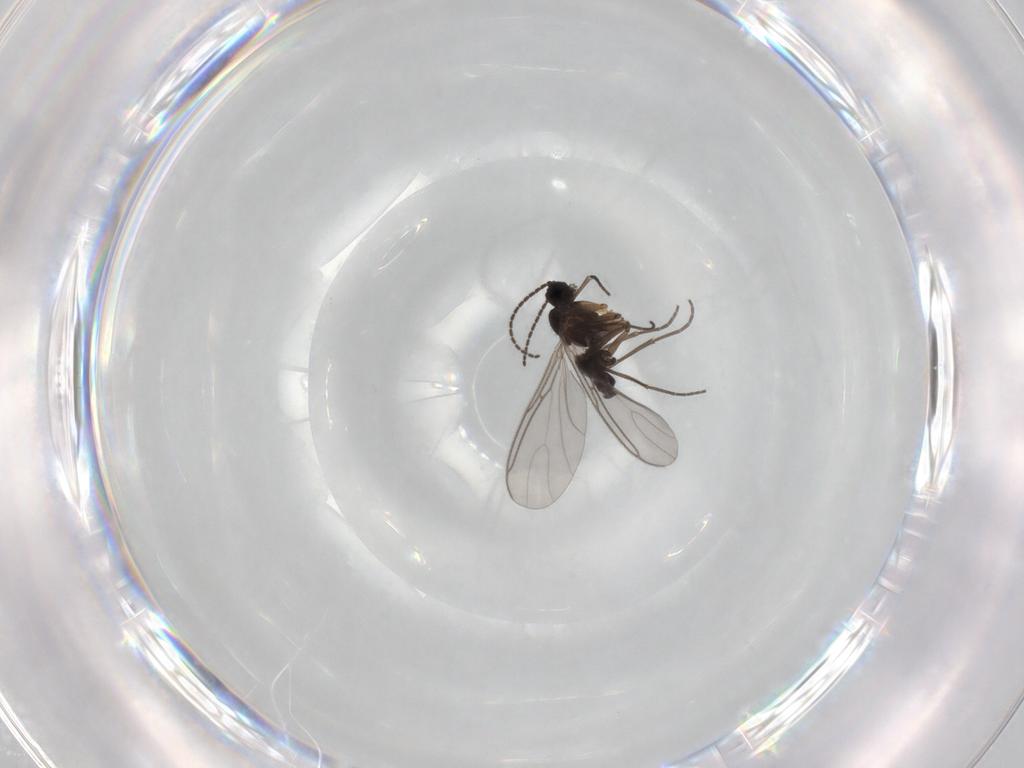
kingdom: Animalia
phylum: Arthropoda
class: Insecta
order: Diptera
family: Sciaridae
